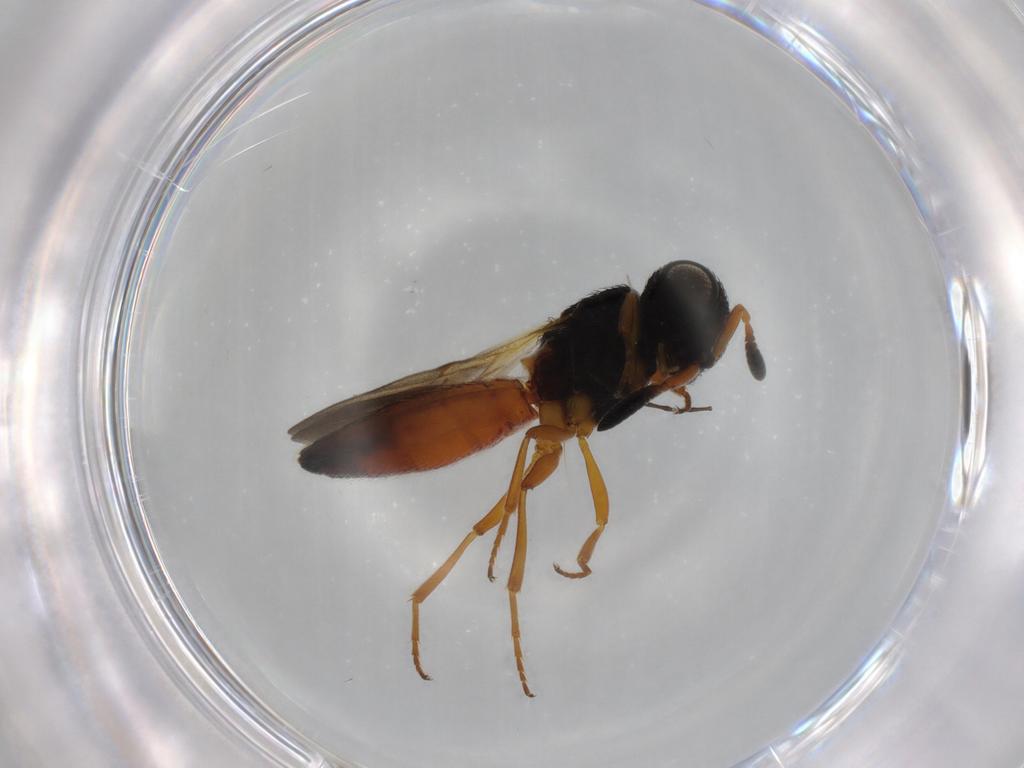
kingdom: Animalia
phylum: Arthropoda
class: Insecta
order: Hymenoptera
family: Scelionidae
